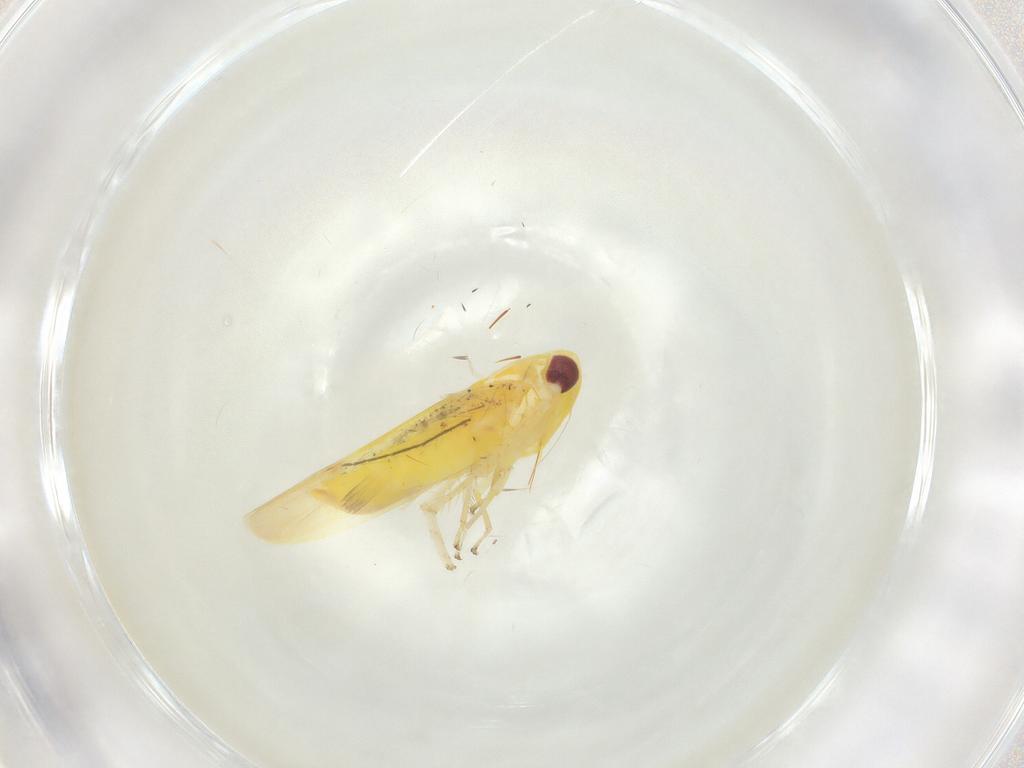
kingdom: Animalia
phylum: Arthropoda
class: Insecta
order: Hemiptera
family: Cicadellidae
